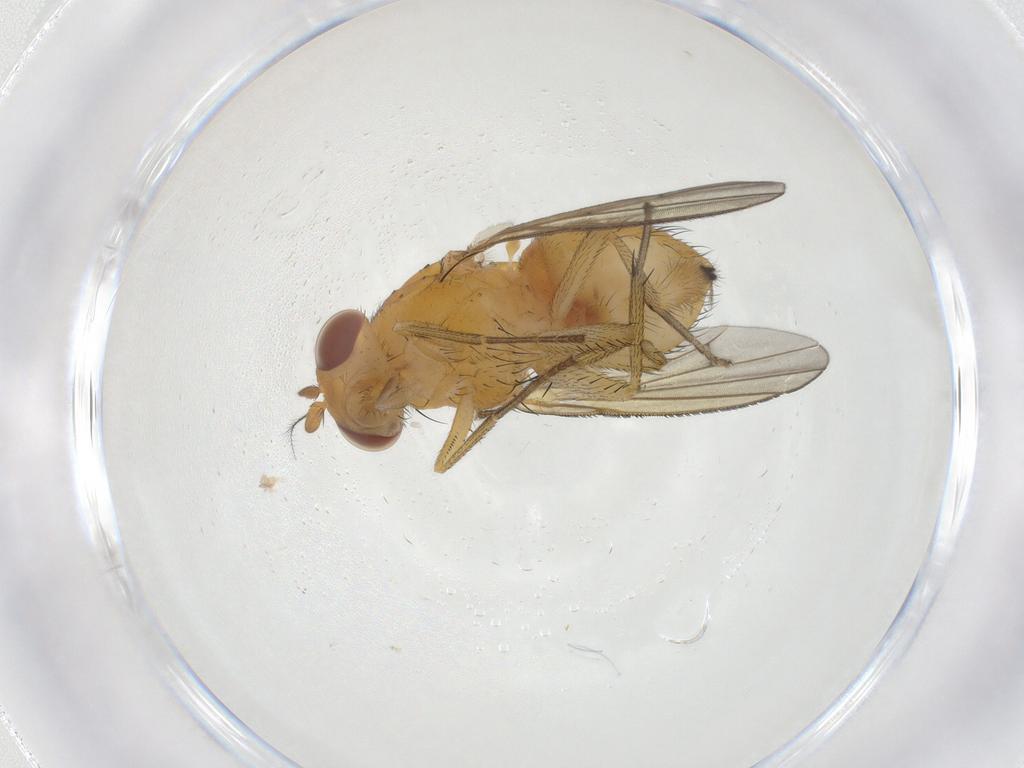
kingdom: Animalia
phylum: Arthropoda
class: Insecta
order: Diptera
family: Cecidomyiidae
